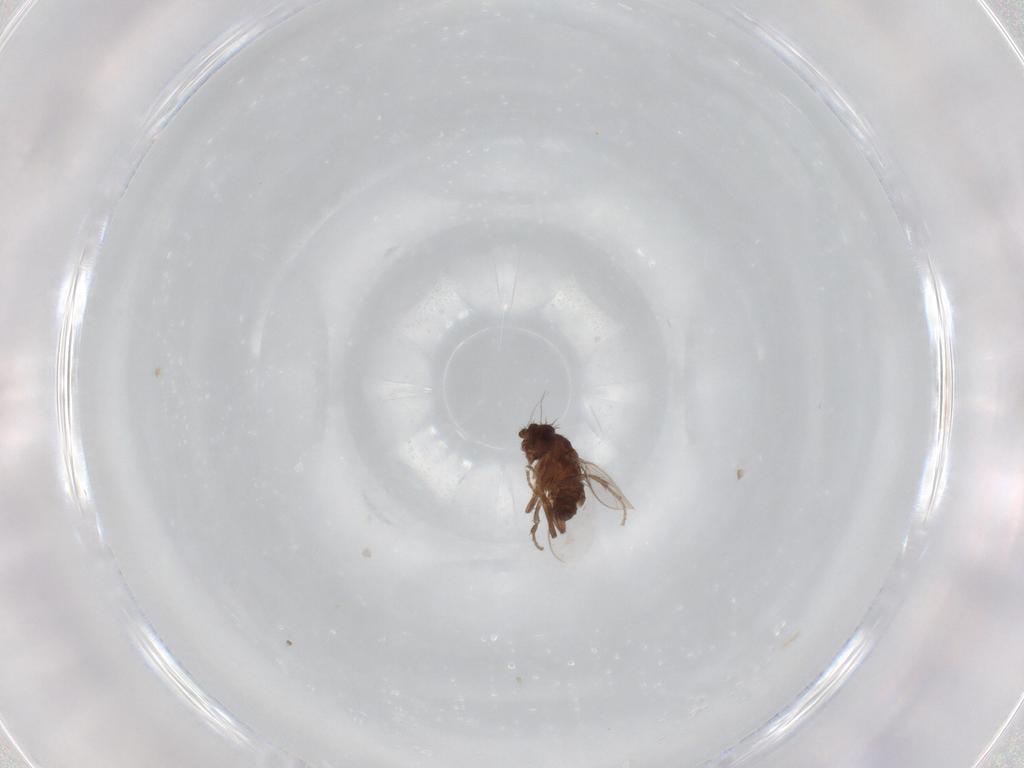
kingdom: Animalia
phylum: Arthropoda
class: Insecta
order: Diptera
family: Sphaeroceridae
